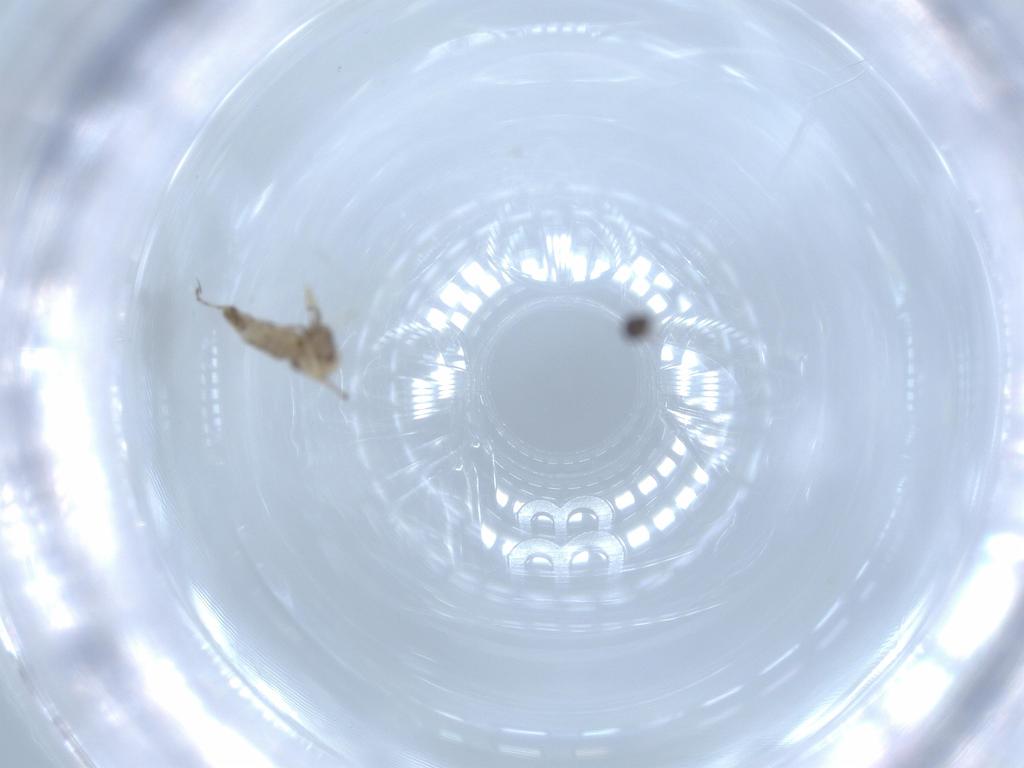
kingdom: Animalia
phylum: Arthropoda
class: Insecta
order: Diptera
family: Ceratopogonidae
